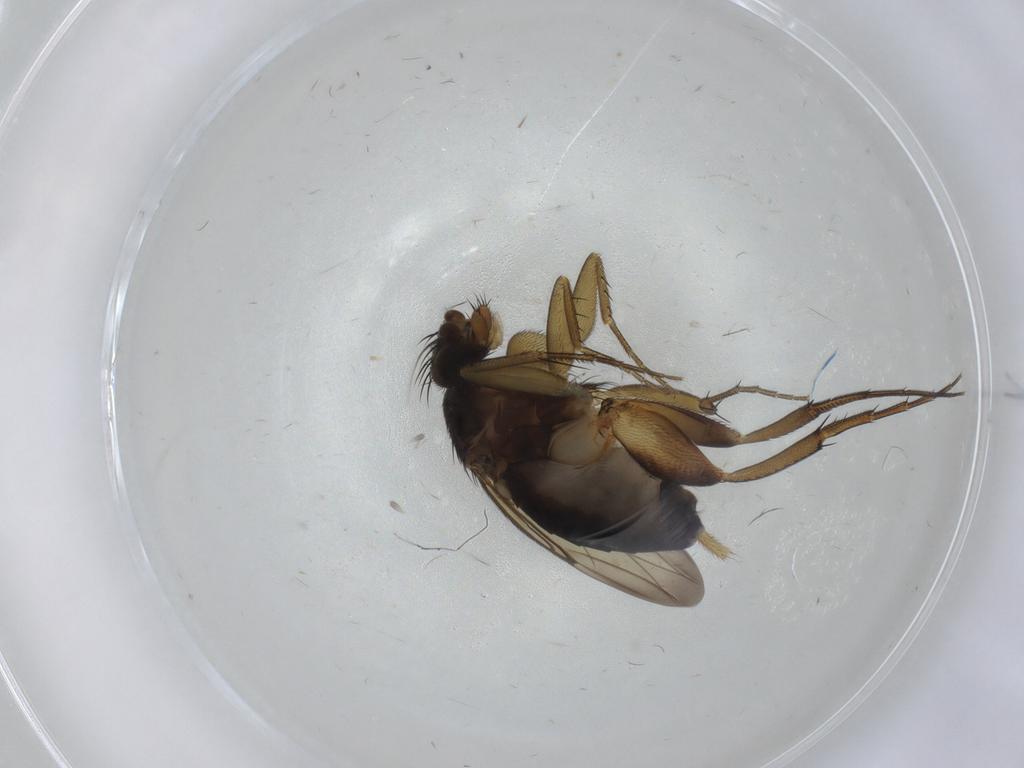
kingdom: Animalia
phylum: Arthropoda
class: Insecta
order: Diptera
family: Phoridae
